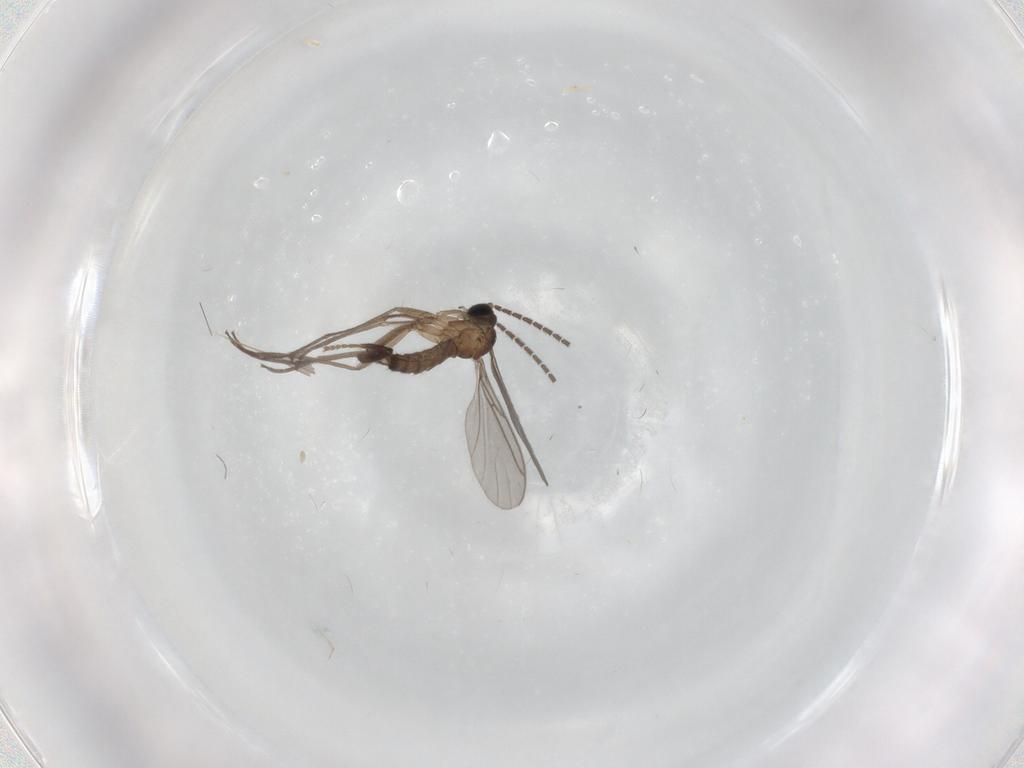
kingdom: Animalia
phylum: Arthropoda
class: Insecta
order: Diptera
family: Sciaridae
